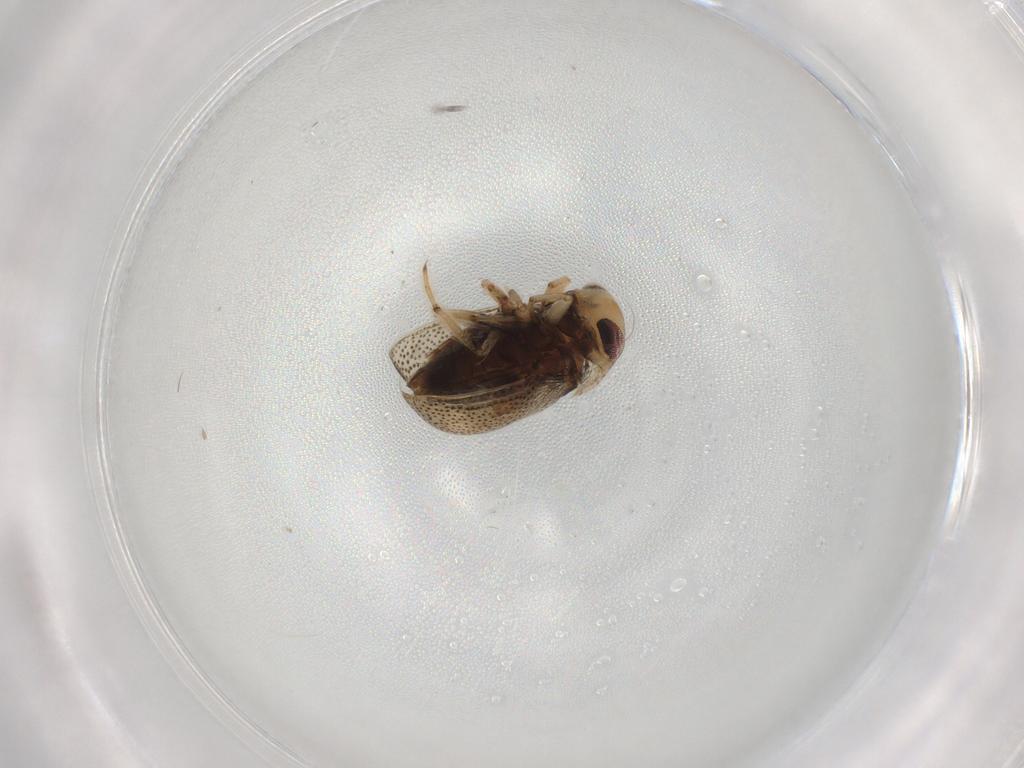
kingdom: Animalia
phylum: Arthropoda
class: Insecta
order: Hemiptera
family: Pleidae
